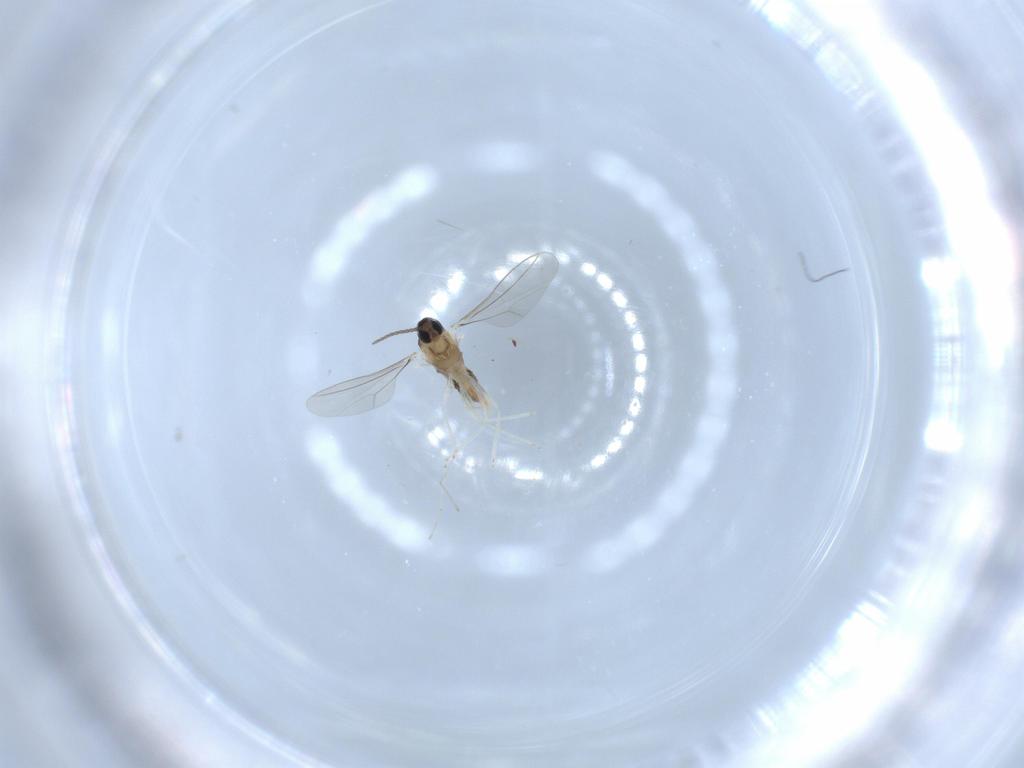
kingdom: Animalia
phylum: Arthropoda
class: Insecta
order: Diptera
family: Cecidomyiidae
